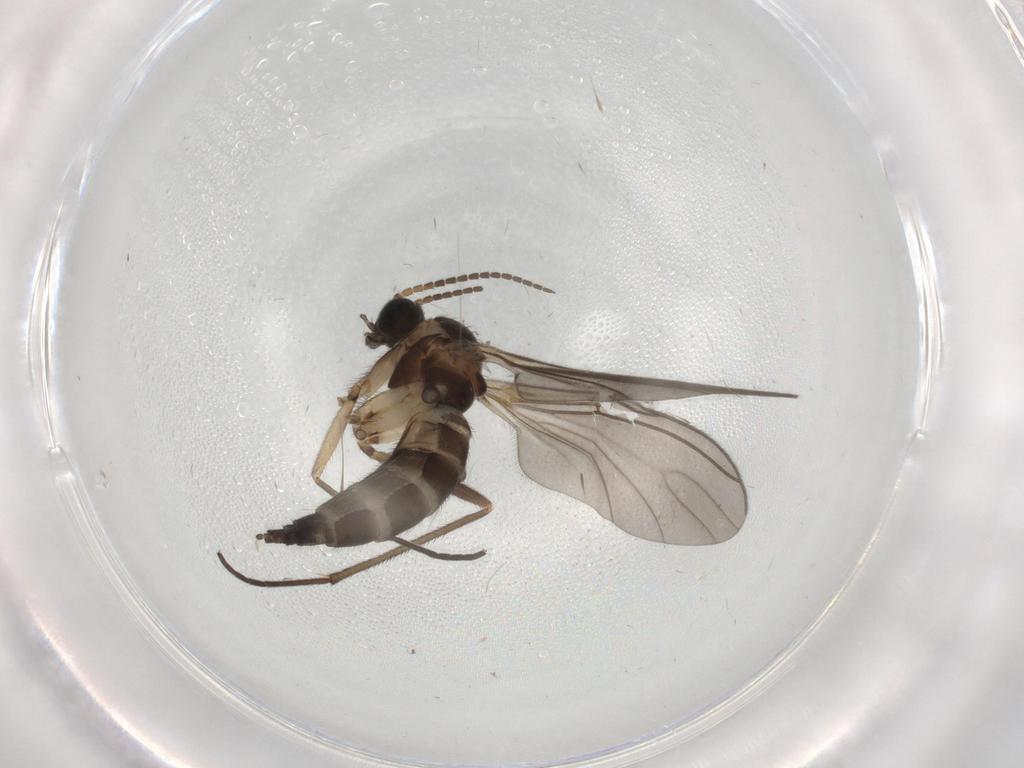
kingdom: Animalia
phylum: Arthropoda
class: Insecta
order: Diptera
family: Sciaridae
